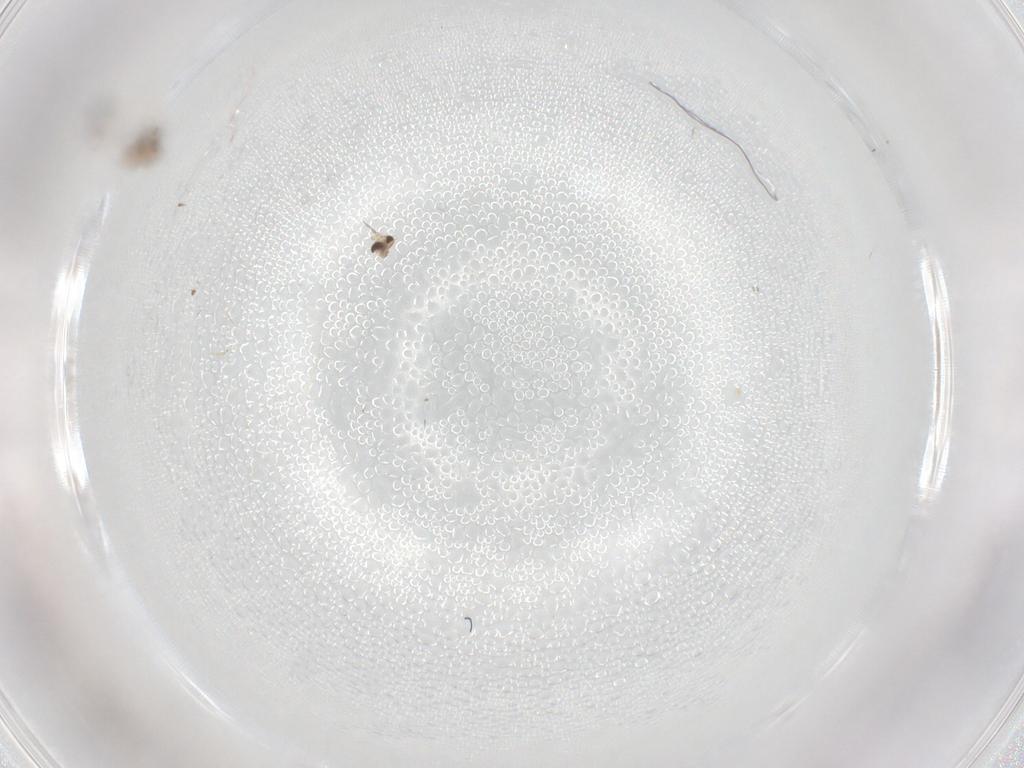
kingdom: Animalia
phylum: Arthropoda
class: Insecta
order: Diptera
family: Cecidomyiidae
